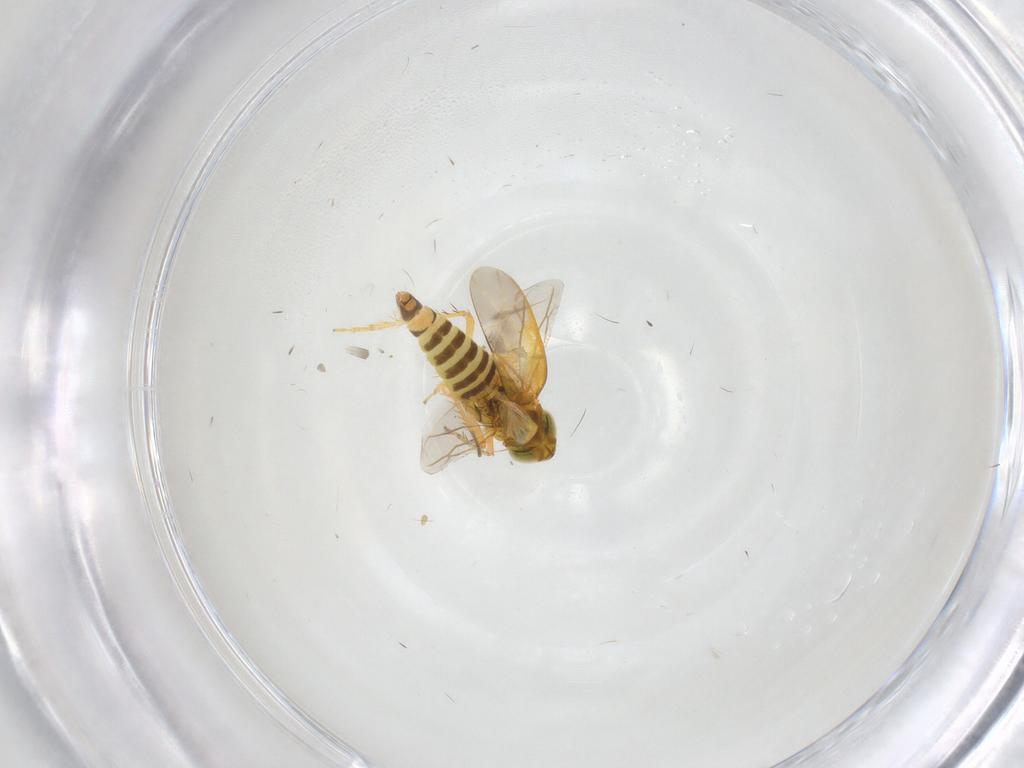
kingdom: Animalia
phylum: Arthropoda
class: Insecta
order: Hemiptera
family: Cicadellidae
